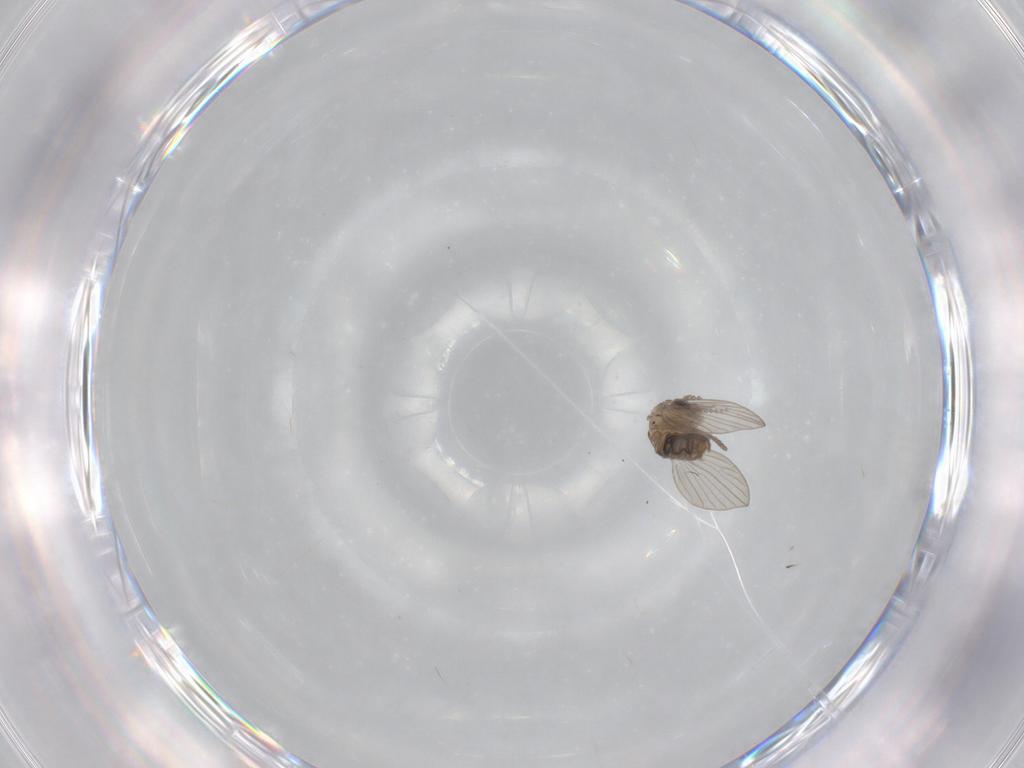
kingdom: Animalia
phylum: Arthropoda
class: Insecta
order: Diptera
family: Psychodidae
